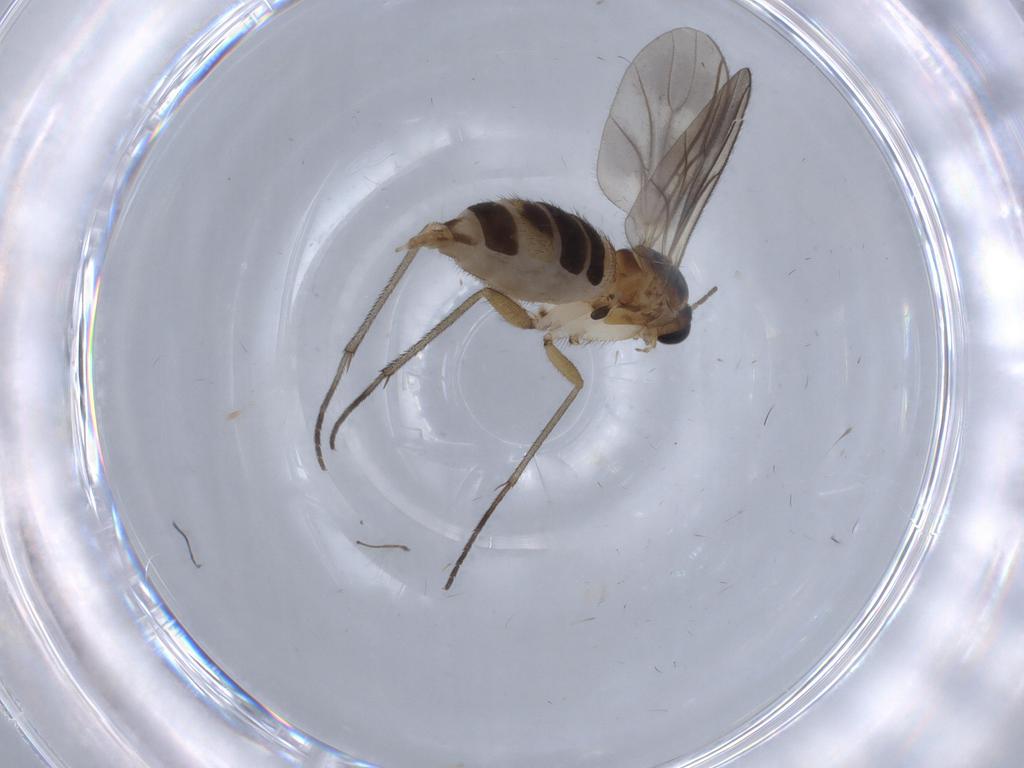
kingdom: Animalia
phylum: Arthropoda
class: Insecta
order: Diptera
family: Sciaridae
